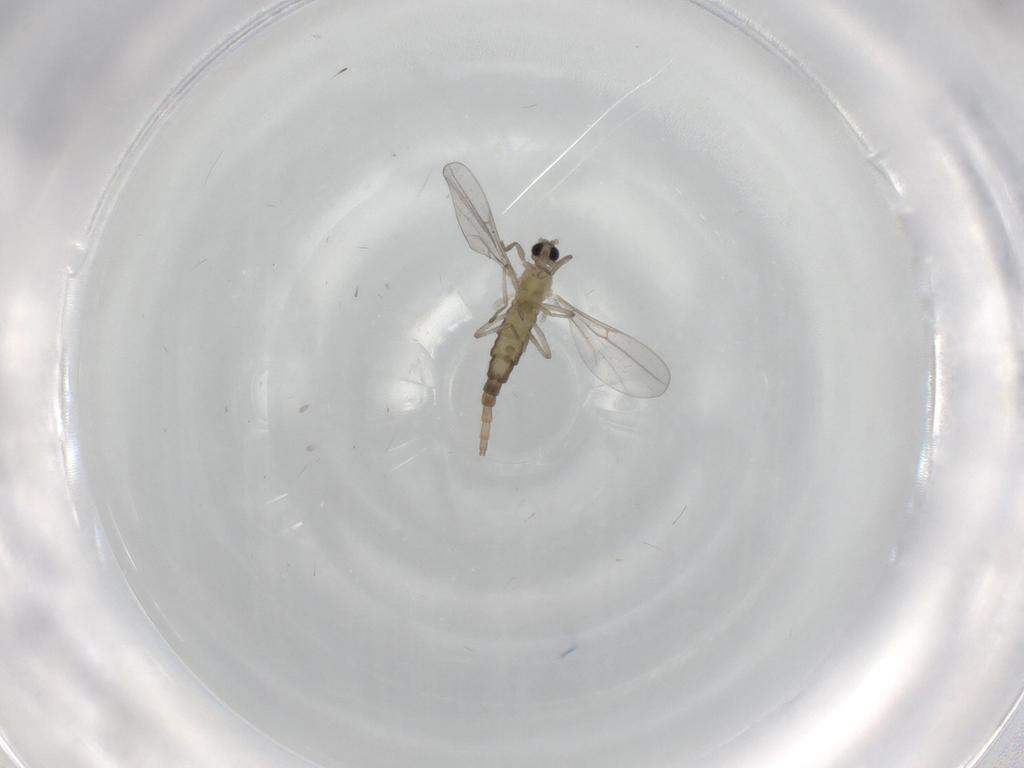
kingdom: Animalia
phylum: Arthropoda
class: Insecta
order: Diptera
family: Cecidomyiidae
